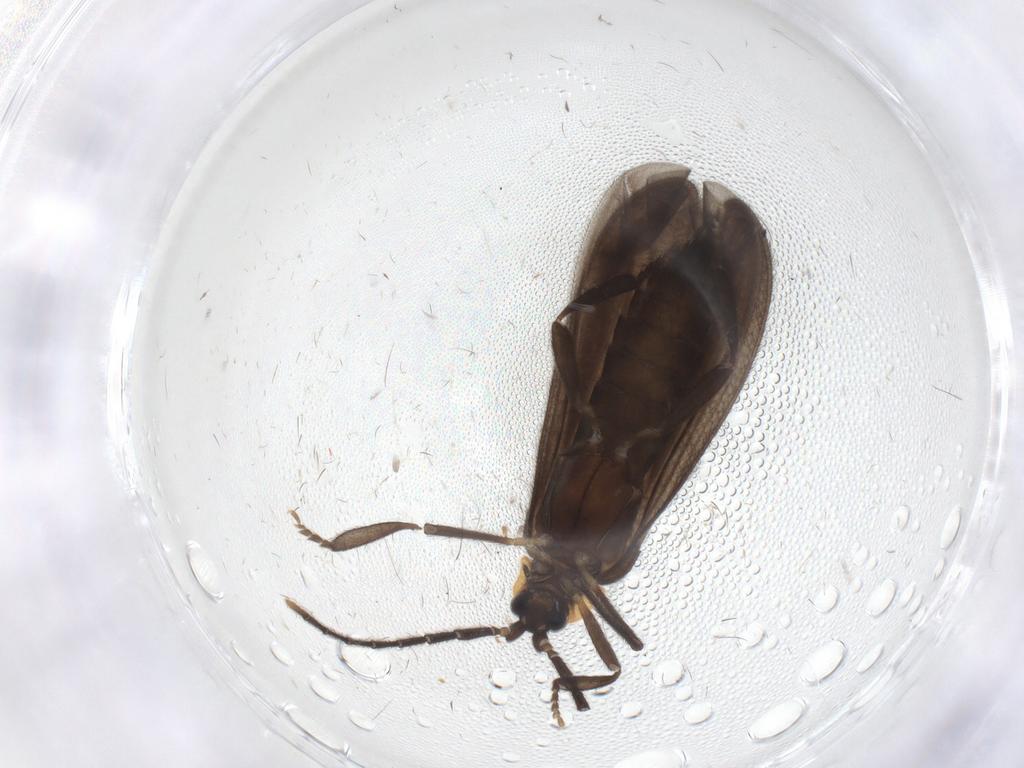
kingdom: Animalia
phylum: Arthropoda
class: Insecta
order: Coleoptera
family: Lycidae
